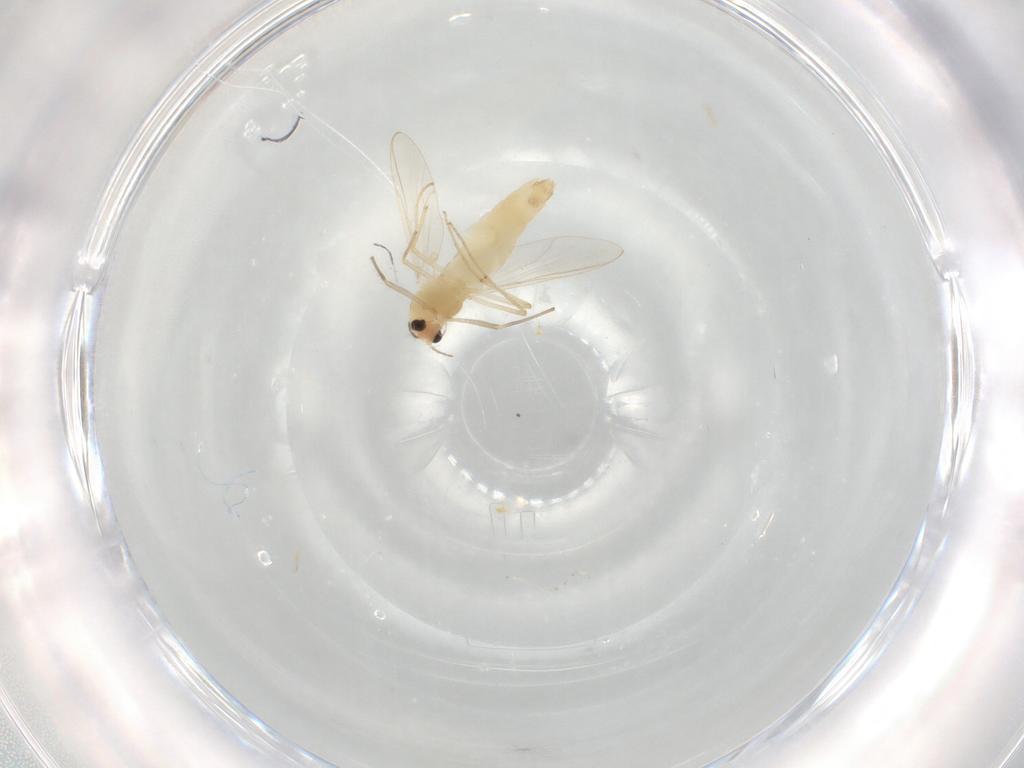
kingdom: Animalia
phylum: Arthropoda
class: Insecta
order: Diptera
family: Chironomidae
